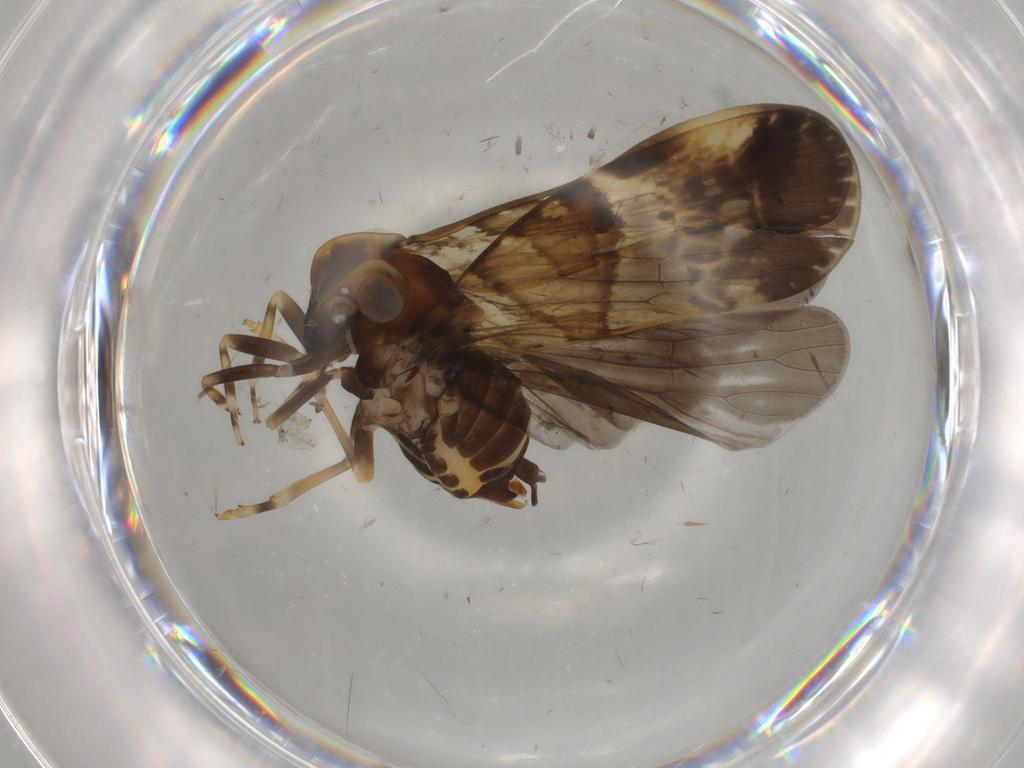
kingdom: Animalia
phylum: Arthropoda
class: Insecta
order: Hemiptera
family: Cixiidae
